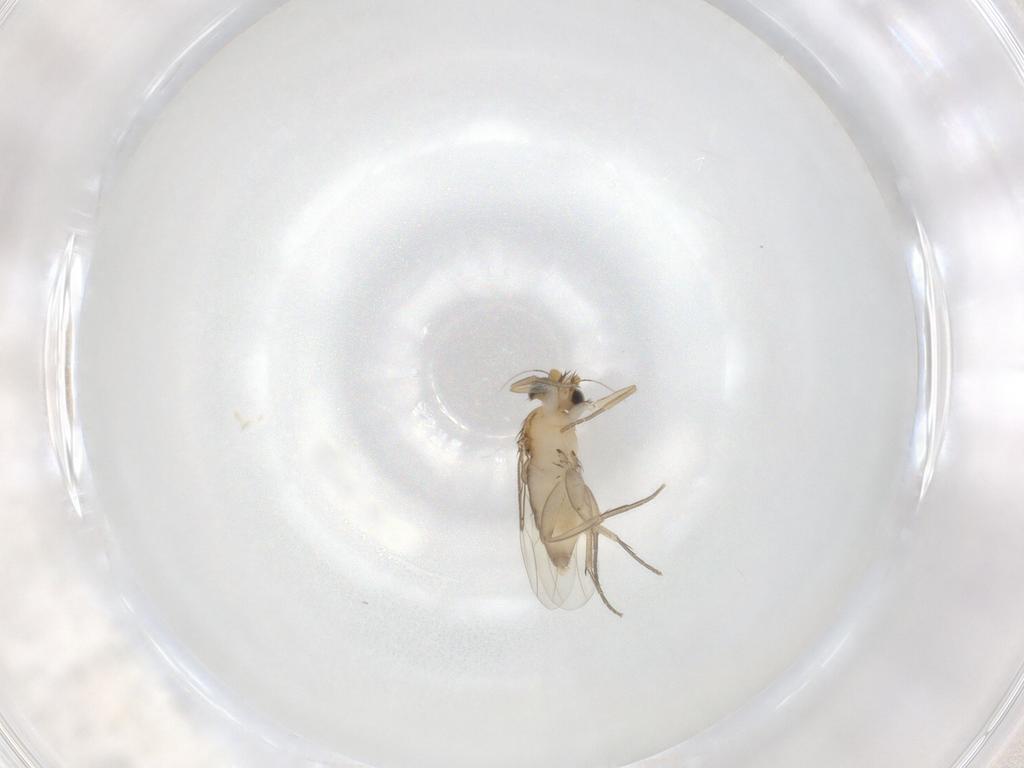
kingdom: Animalia
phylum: Arthropoda
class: Insecta
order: Diptera
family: Phoridae
